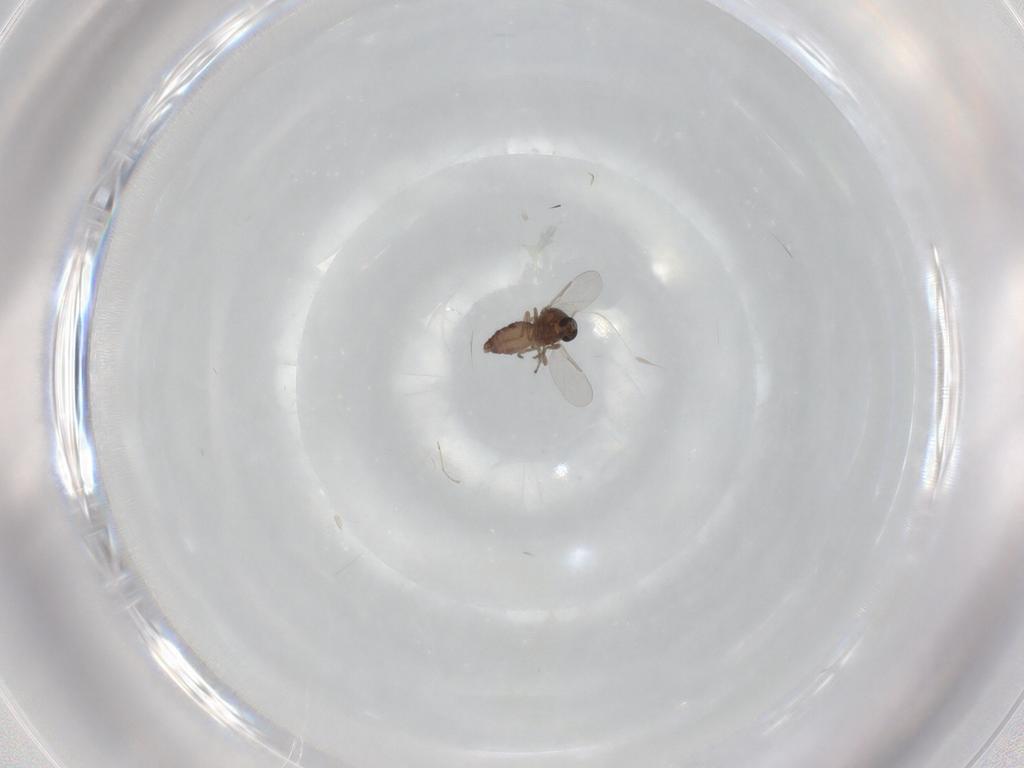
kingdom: Animalia
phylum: Arthropoda
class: Insecta
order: Diptera
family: Ceratopogonidae
